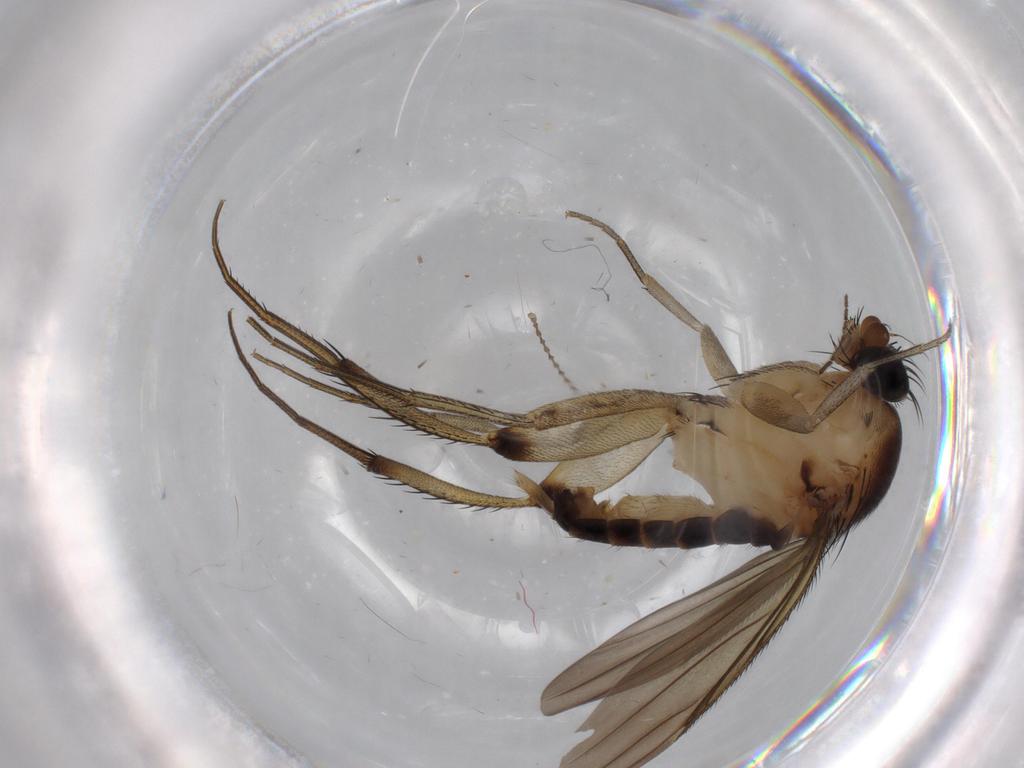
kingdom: Animalia
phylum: Arthropoda
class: Insecta
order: Diptera
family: Phoridae
